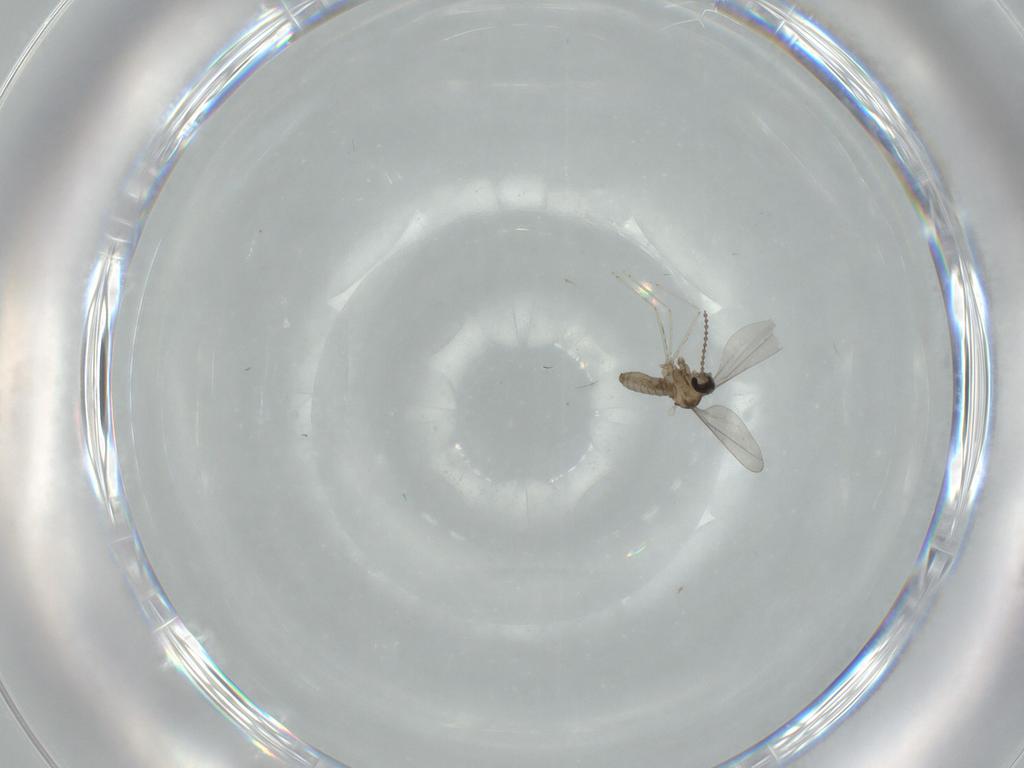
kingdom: Animalia
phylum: Arthropoda
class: Insecta
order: Diptera
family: Cecidomyiidae
